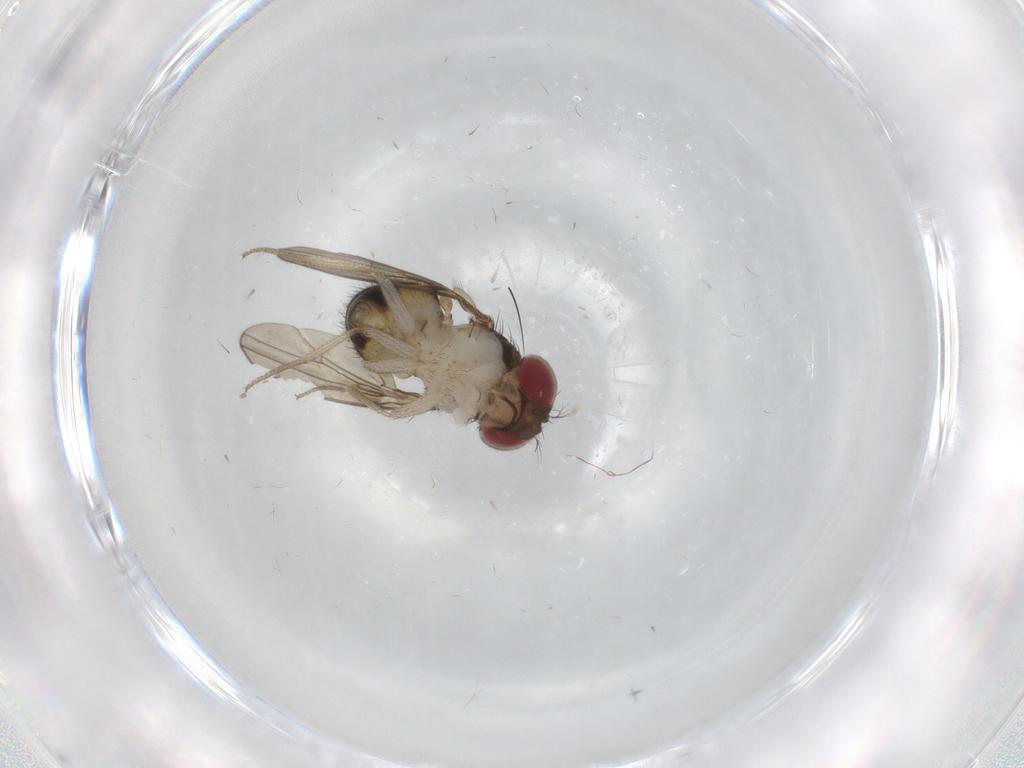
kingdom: Animalia
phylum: Arthropoda
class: Insecta
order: Diptera
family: Drosophilidae
